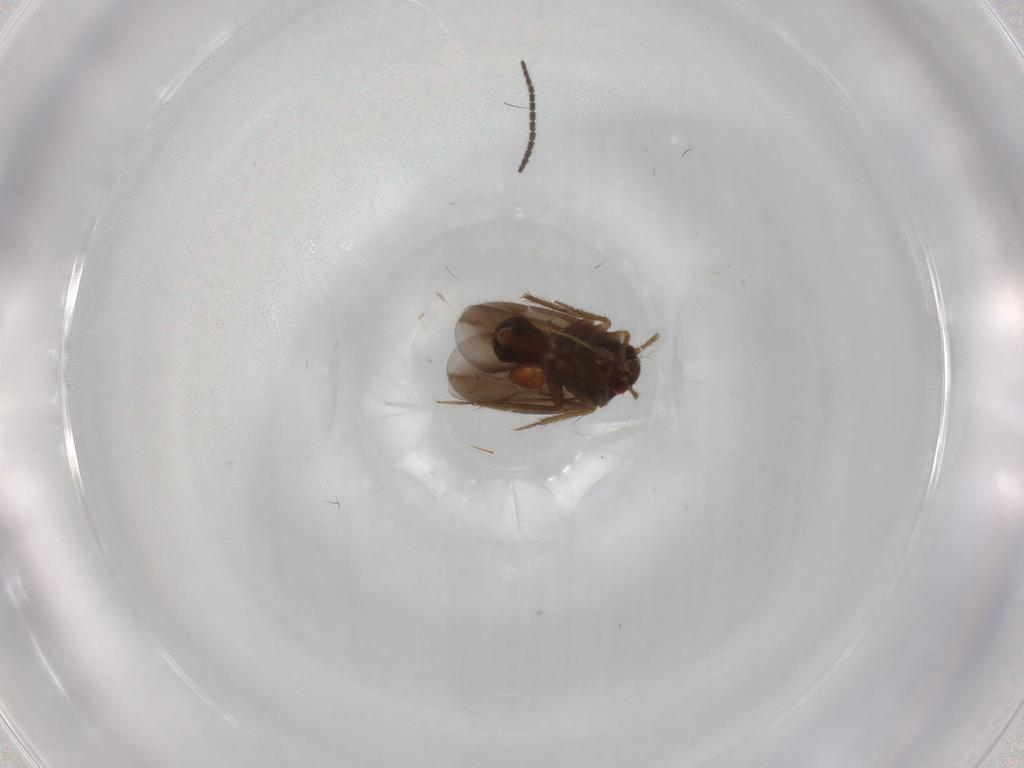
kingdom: Animalia
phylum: Arthropoda
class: Insecta
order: Hemiptera
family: Ceratocombidae
